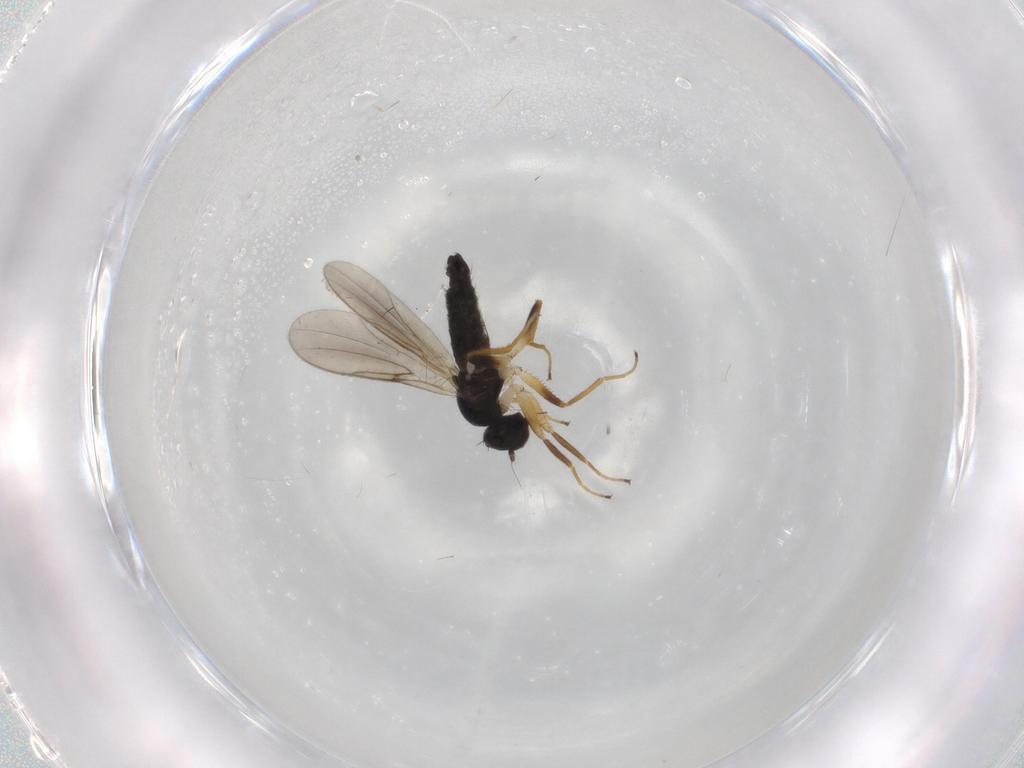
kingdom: Animalia
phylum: Arthropoda
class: Insecta
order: Diptera
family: Hybotidae
